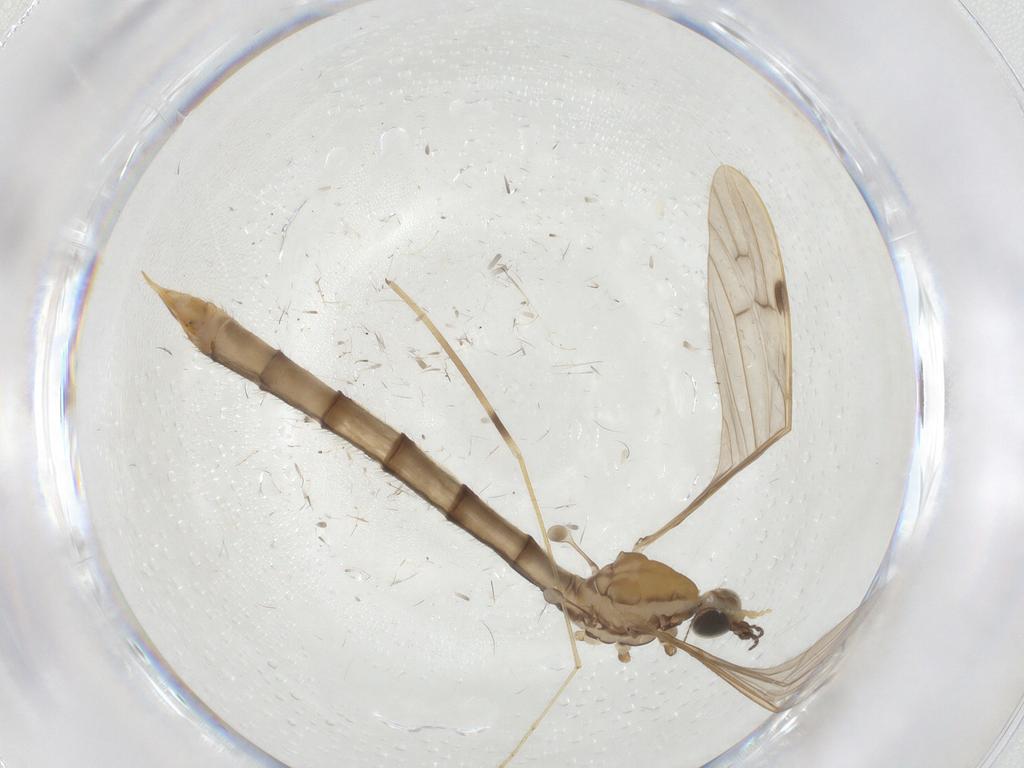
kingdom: Animalia
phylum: Arthropoda
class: Insecta
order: Diptera
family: Limoniidae
